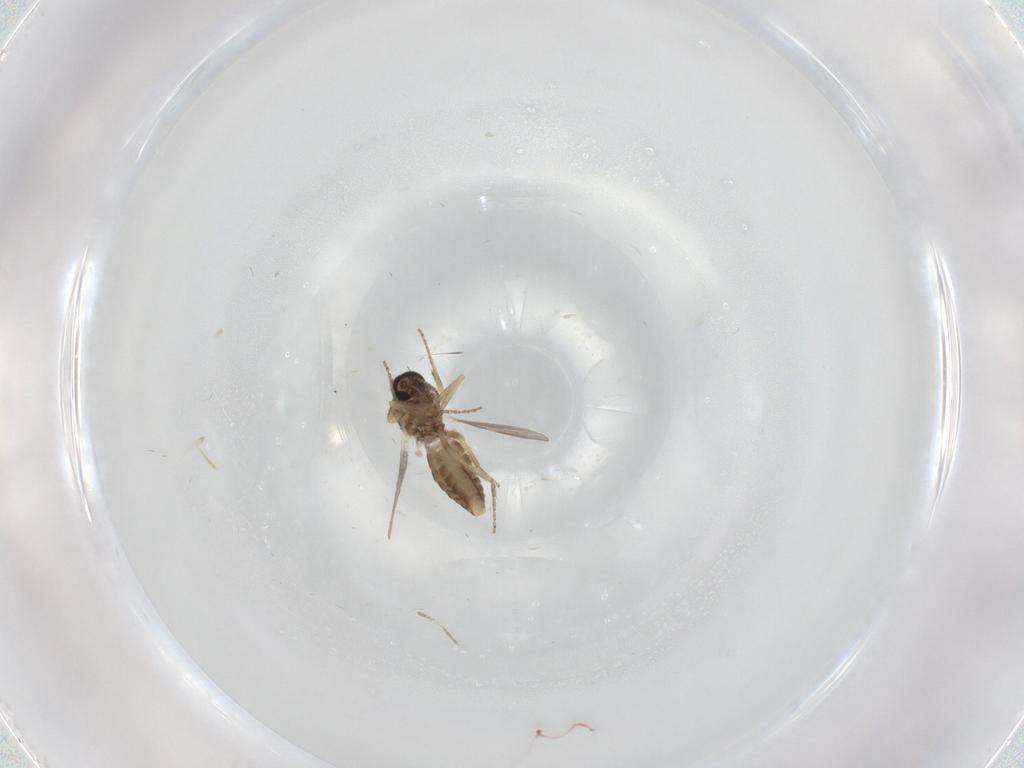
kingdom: Animalia
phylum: Arthropoda
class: Insecta
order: Diptera
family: Ceratopogonidae
